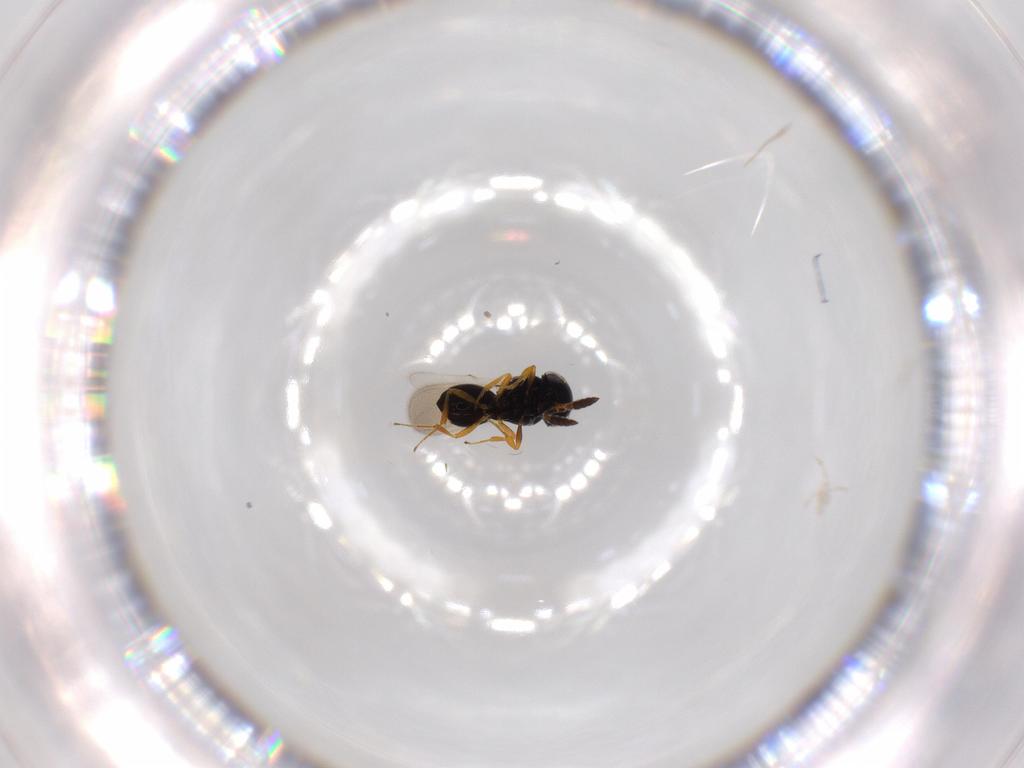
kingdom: Animalia
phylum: Arthropoda
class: Insecta
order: Hymenoptera
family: Scelionidae
